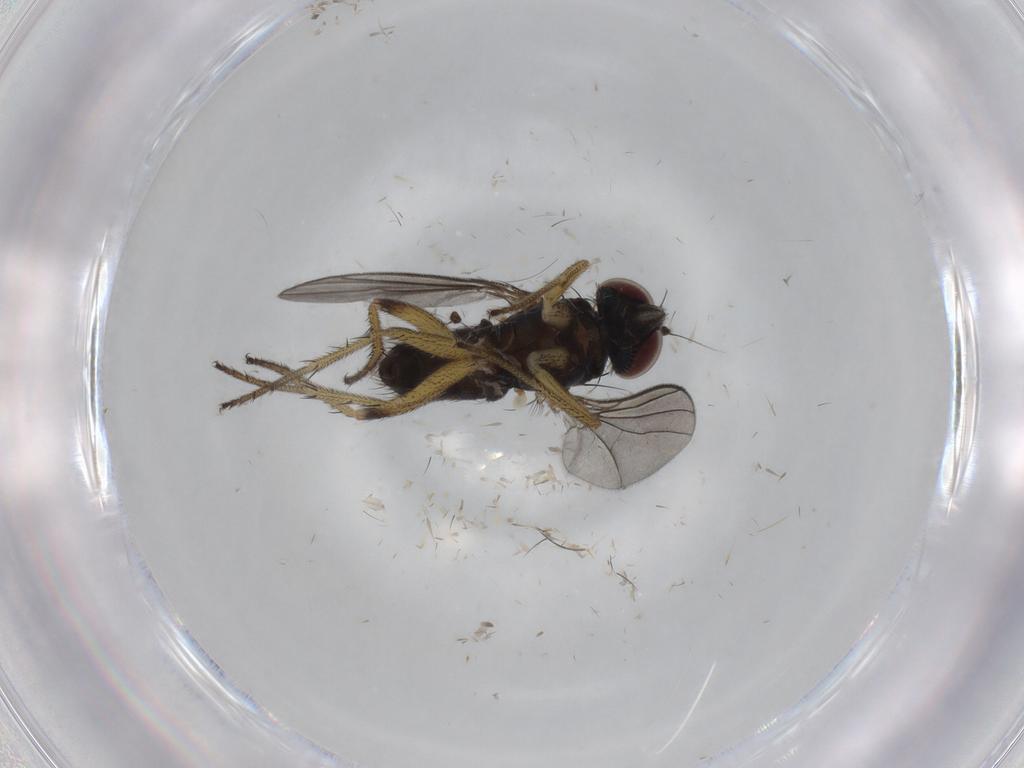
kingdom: Animalia
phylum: Arthropoda
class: Insecta
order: Diptera
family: Dolichopodidae
